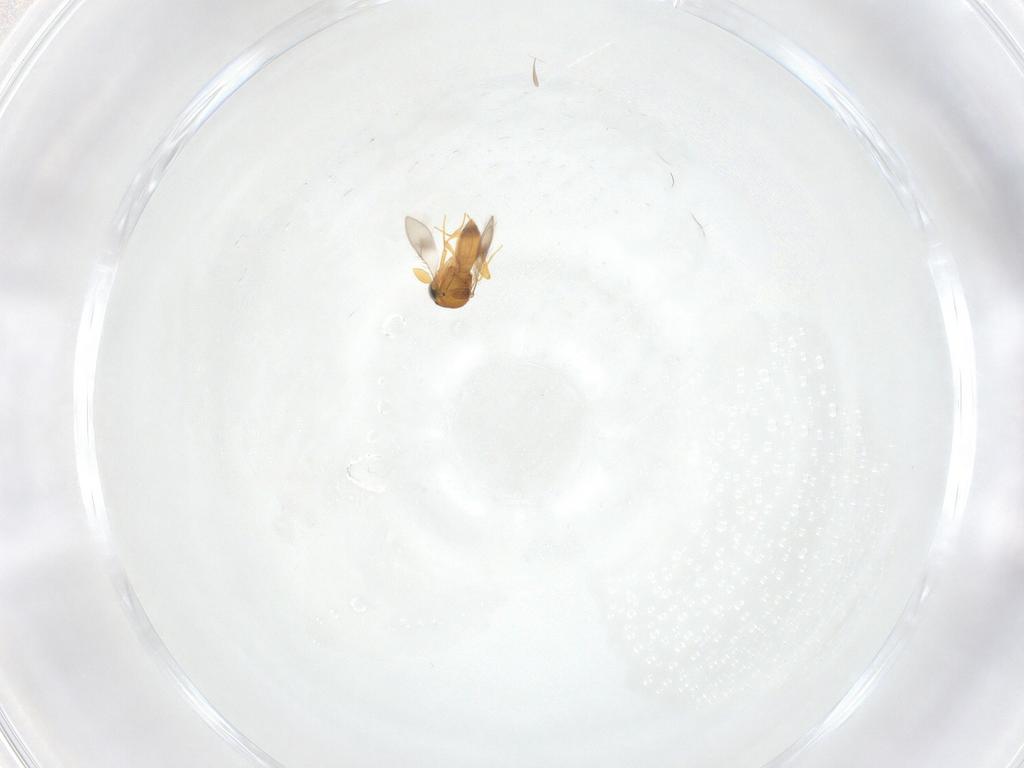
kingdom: Animalia
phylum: Arthropoda
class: Insecta
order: Hymenoptera
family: Scelionidae
